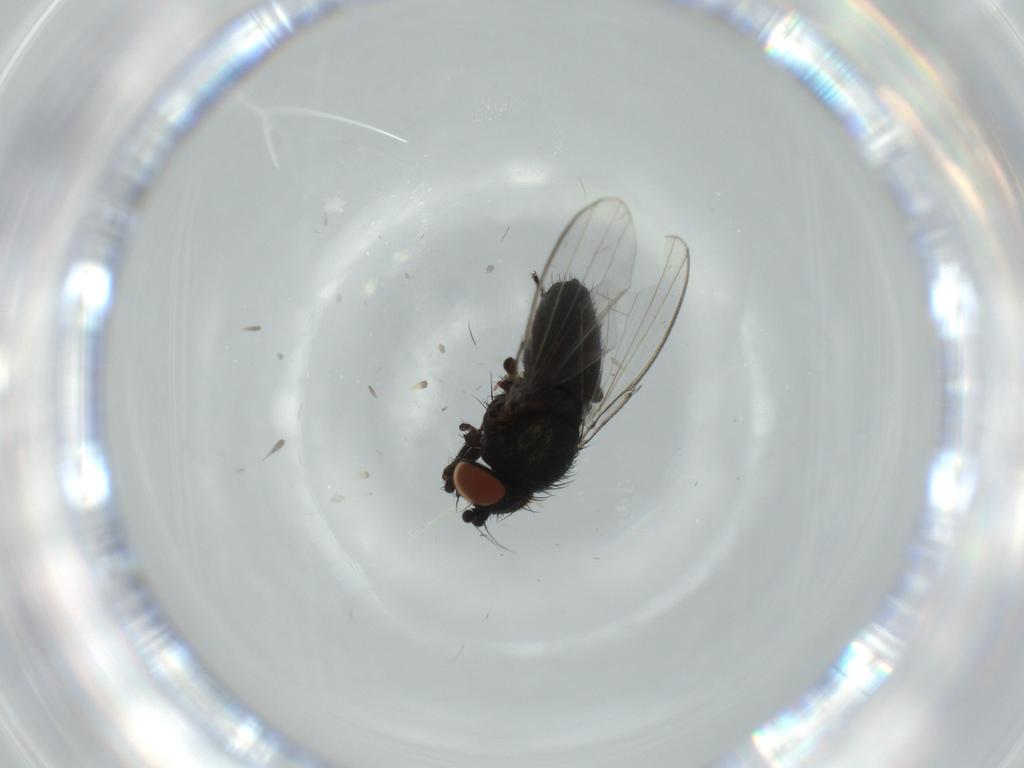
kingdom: Animalia
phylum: Arthropoda
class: Insecta
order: Diptera
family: Milichiidae
